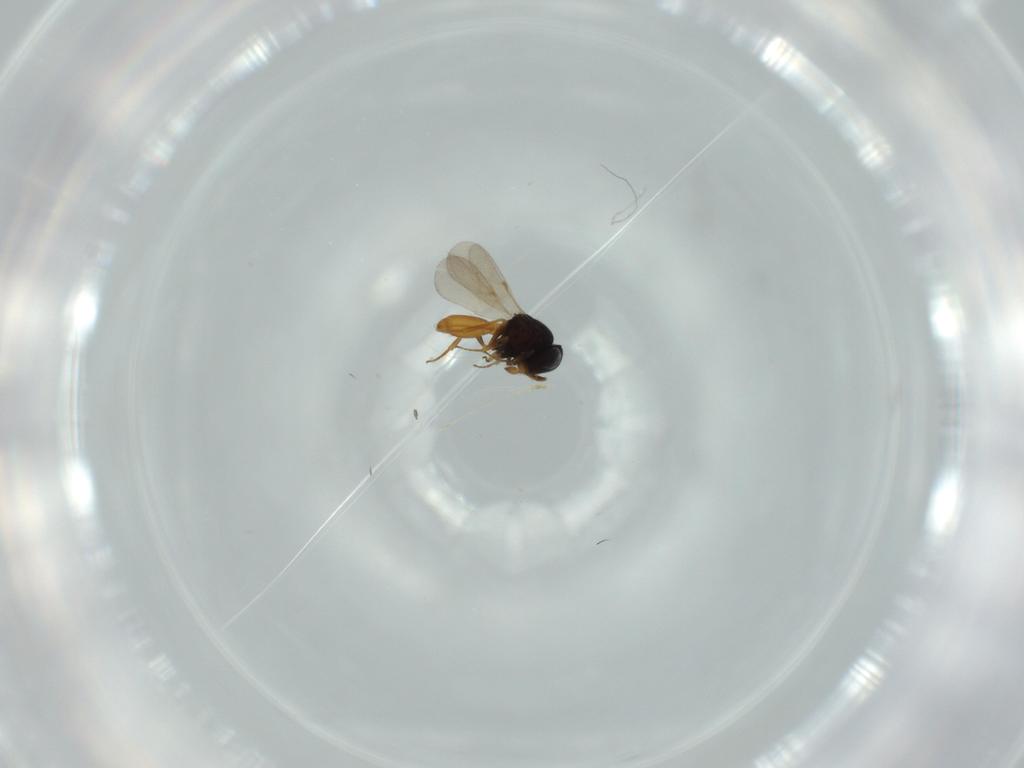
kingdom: Animalia
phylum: Arthropoda
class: Insecta
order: Hymenoptera
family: Scelionidae
